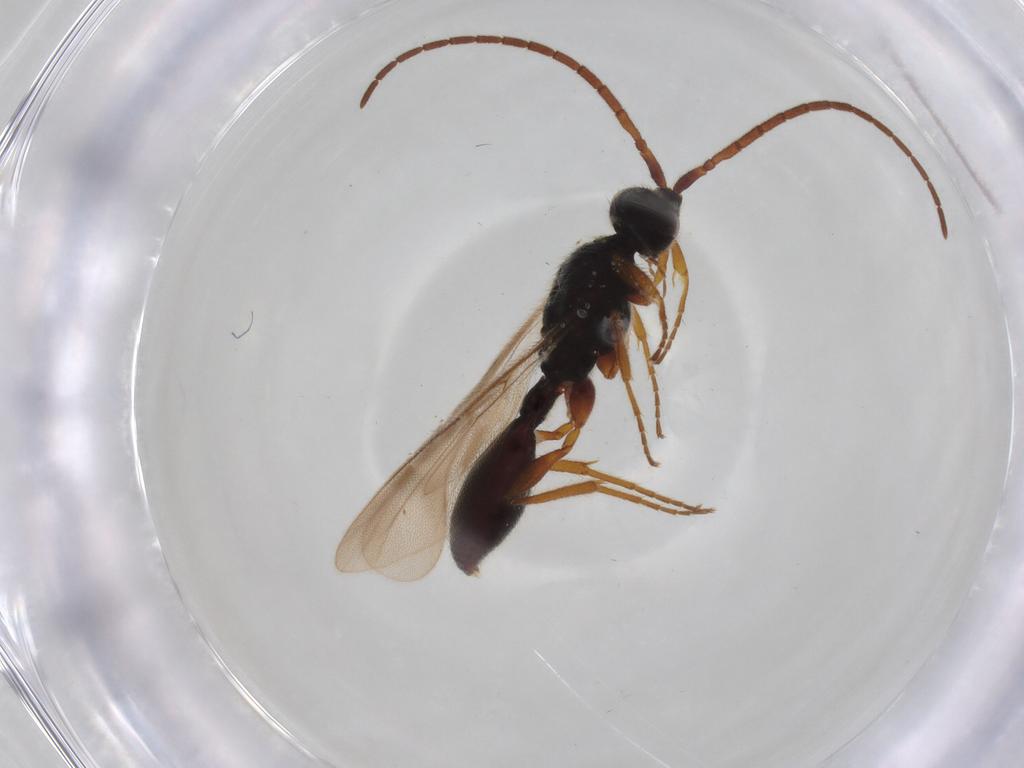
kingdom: Animalia
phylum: Arthropoda
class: Insecta
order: Hymenoptera
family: Diapriidae
